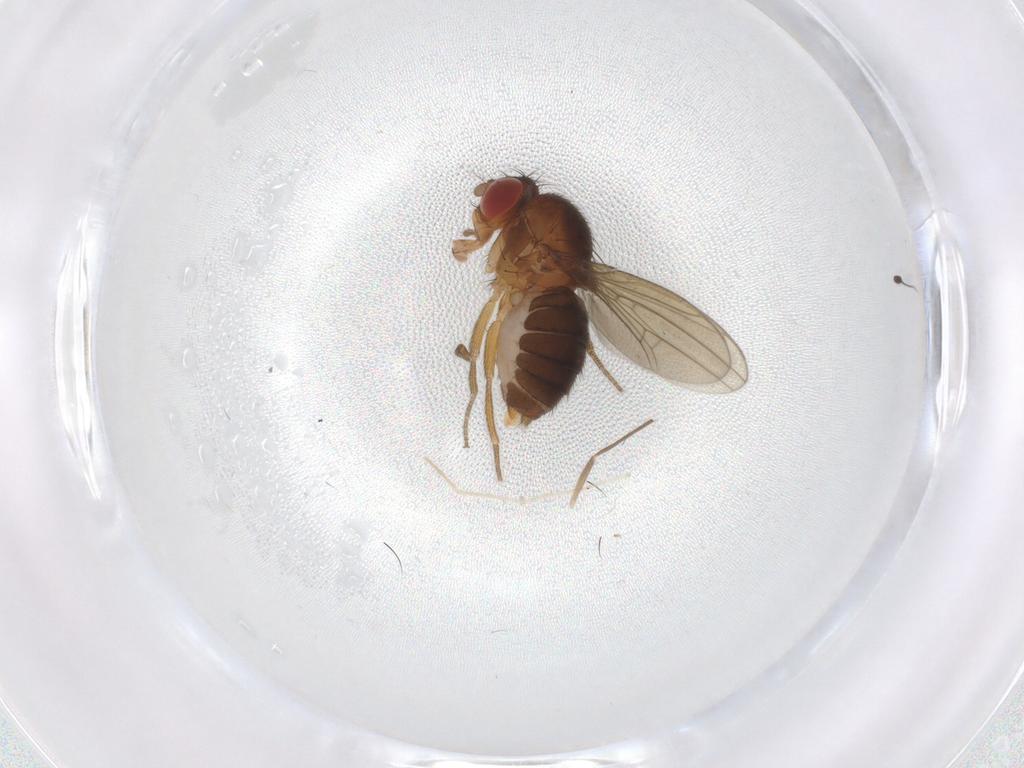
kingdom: Animalia
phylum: Arthropoda
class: Insecta
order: Diptera
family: Drosophilidae
